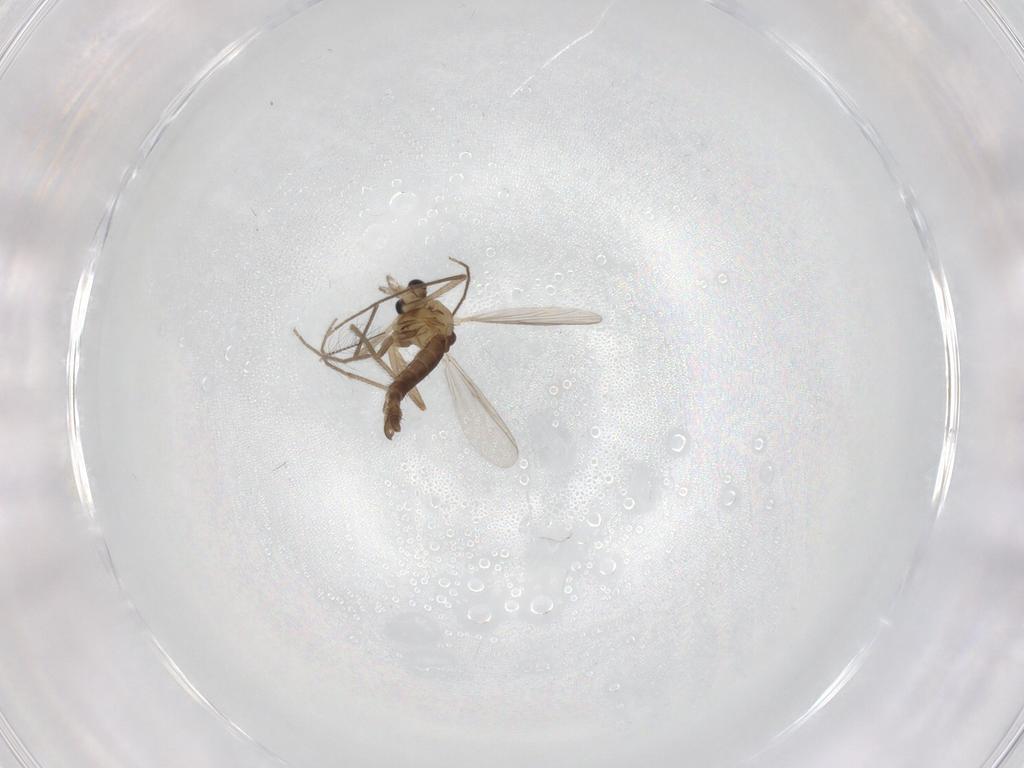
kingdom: Animalia
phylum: Arthropoda
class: Insecta
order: Diptera
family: Chironomidae
